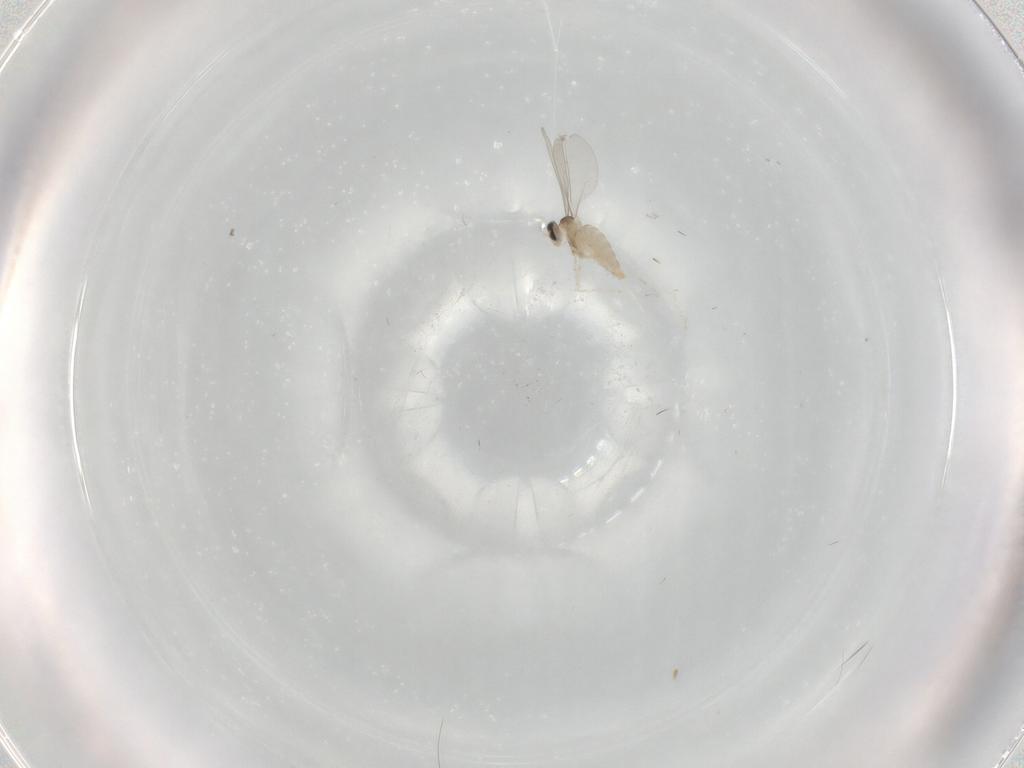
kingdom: Animalia
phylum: Arthropoda
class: Insecta
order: Diptera
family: Cecidomyiidae
